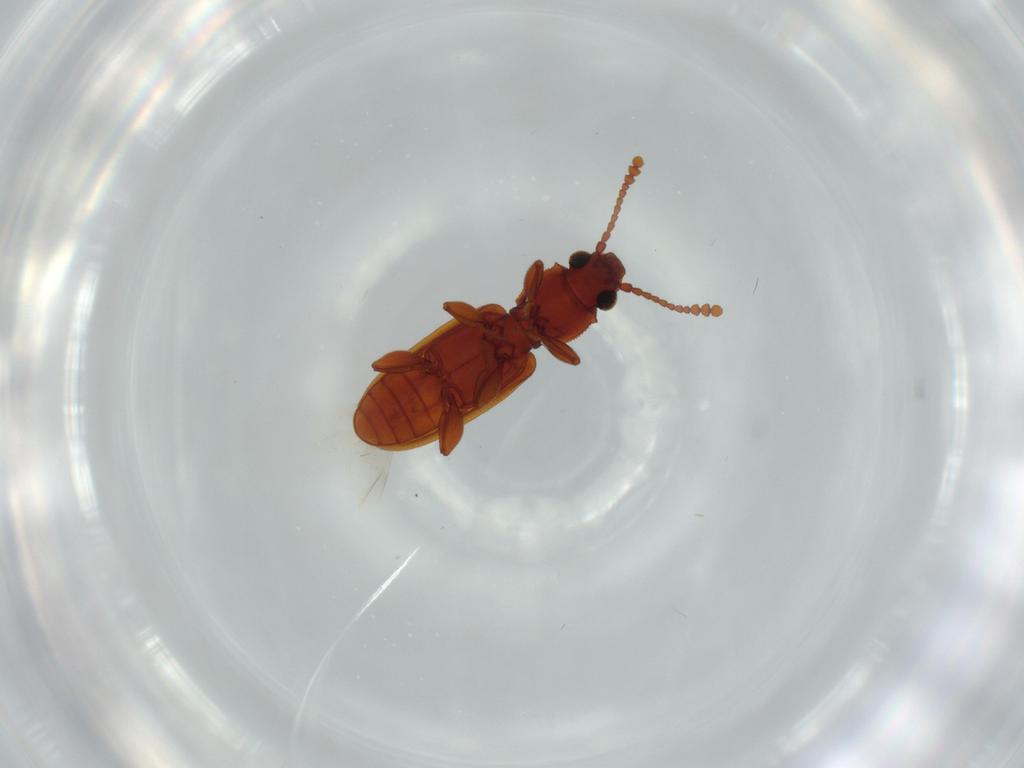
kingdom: Animalia
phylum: Arthropoda
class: Insecta
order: Coleoptera
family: Silvanidae
